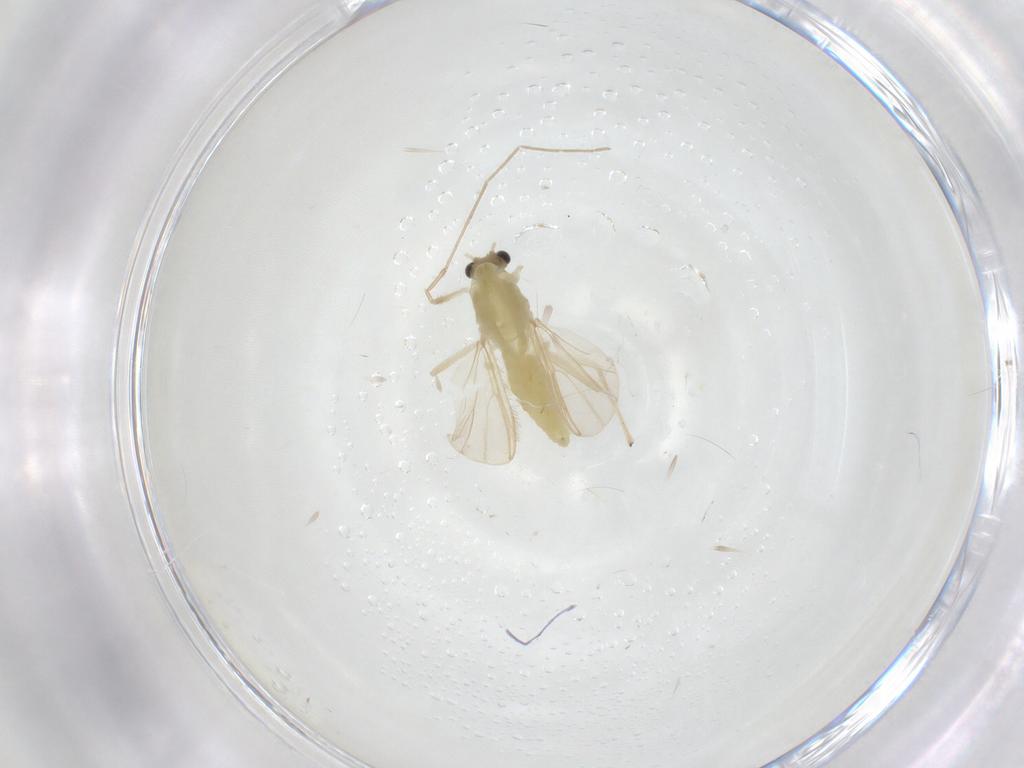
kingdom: Animalia
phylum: Arthropoda
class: Insecta
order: Diptera
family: Chironomidae
